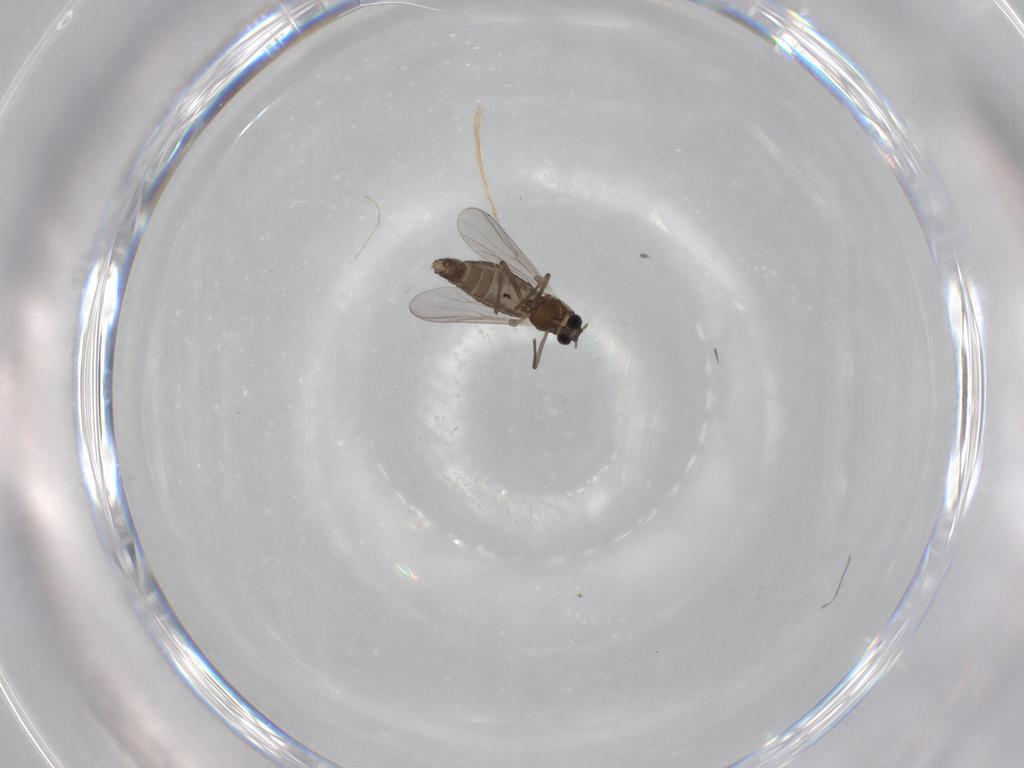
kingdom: Animalia
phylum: Arthropoda
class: Insecta
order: Diptera
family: Chironomidae
